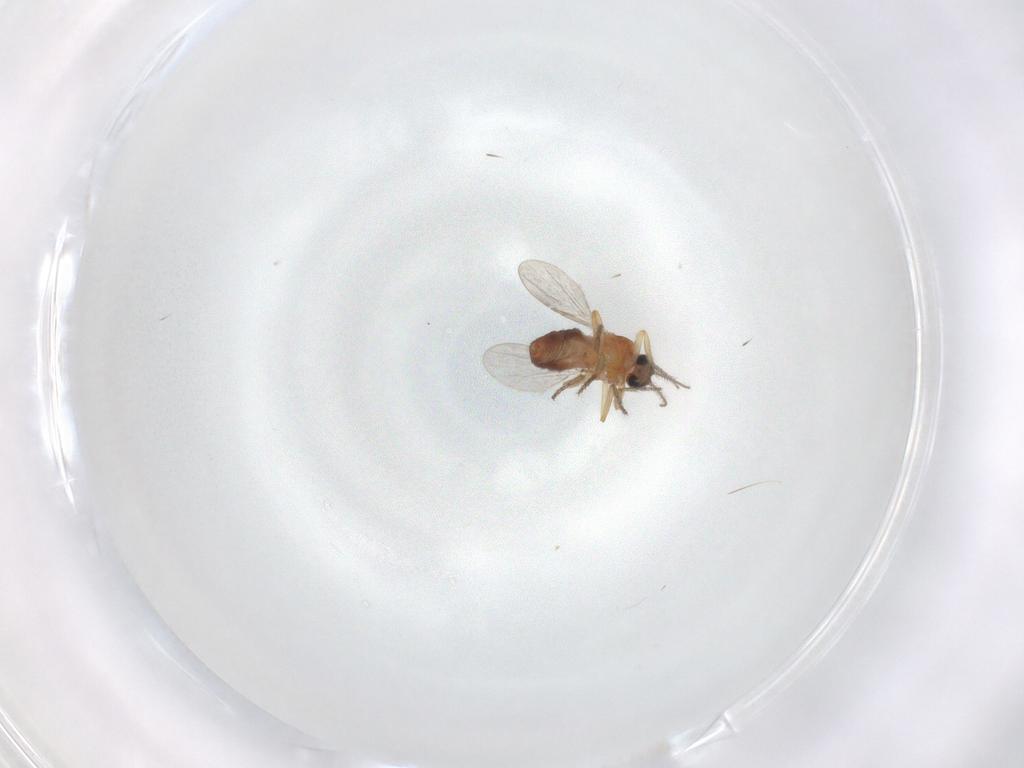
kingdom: Animalia
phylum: Arthropoda
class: Insecta
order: Diptera
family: Ceratopogonidae
